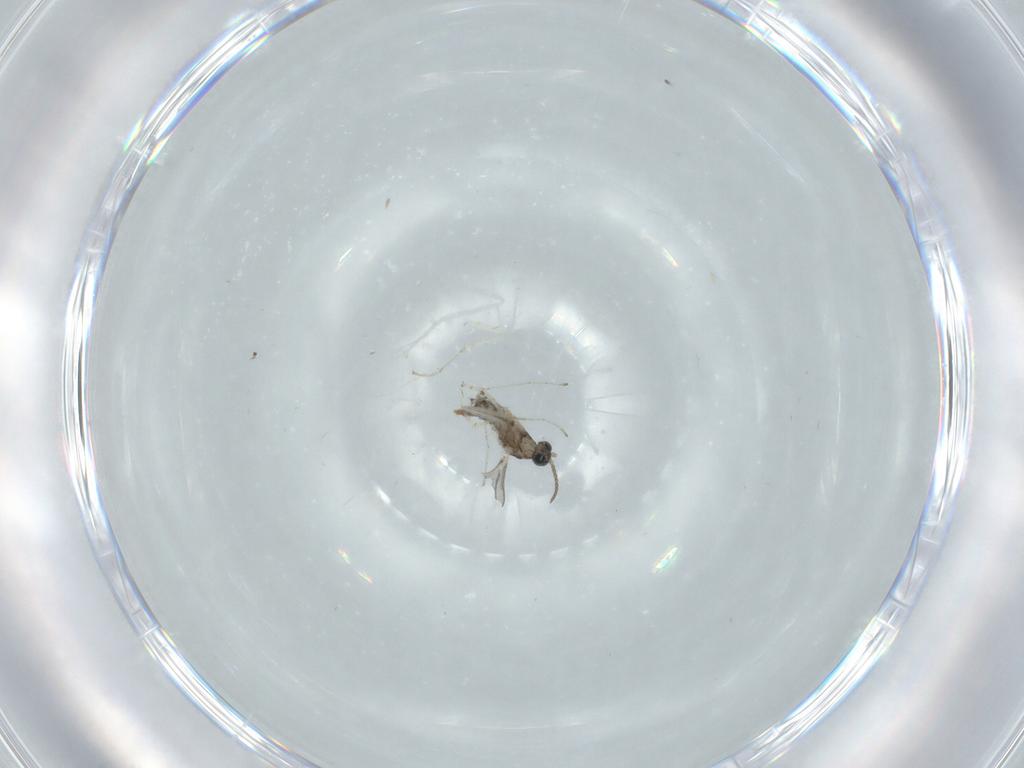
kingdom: Animalia
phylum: Arthropoda
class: Insecta
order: Diptera
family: Cecidomyiidae
